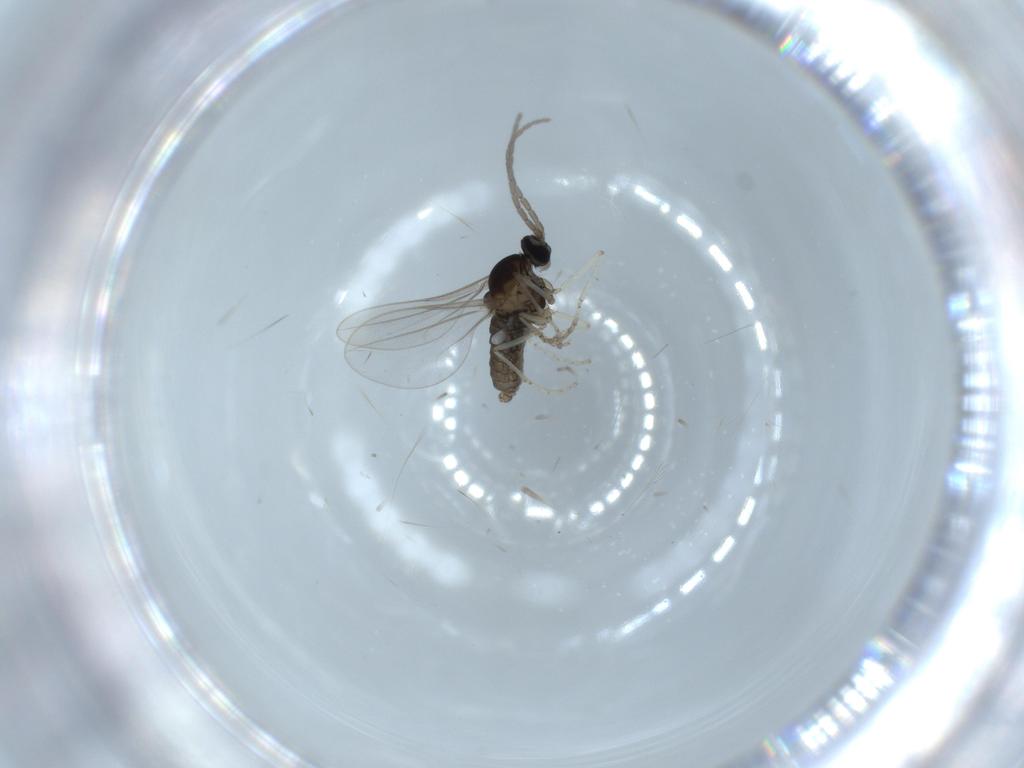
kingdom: Animalia
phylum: Arthropoda
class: Insecta
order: Diptera
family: Cecidomyiidae
